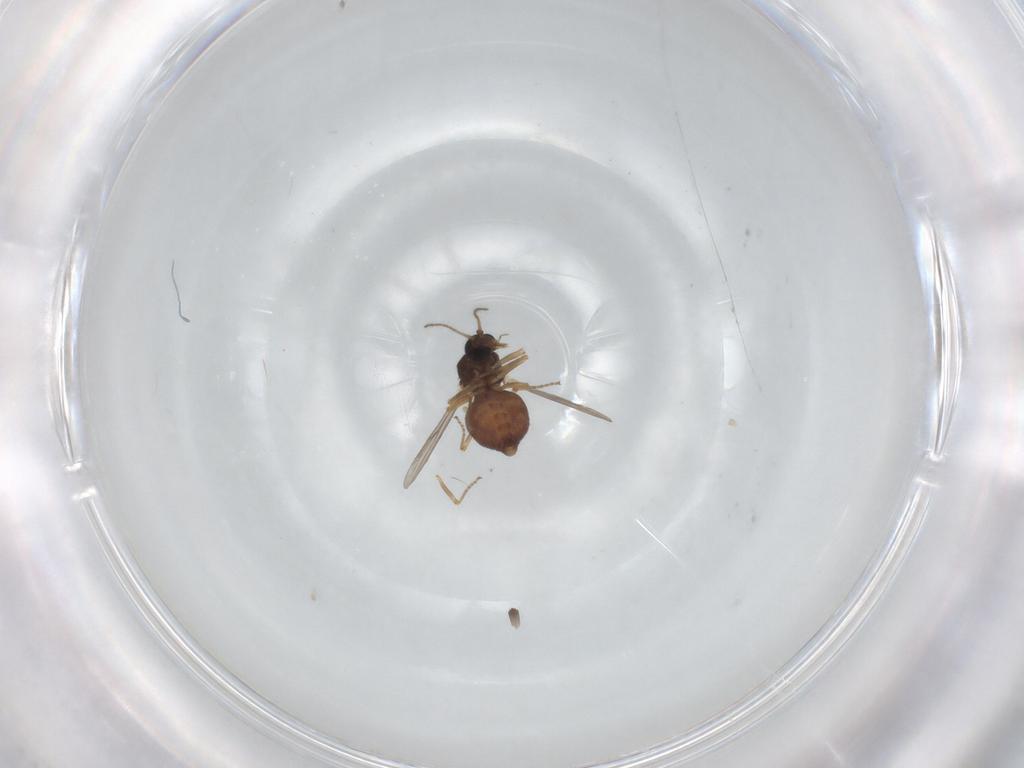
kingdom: Animalia
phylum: Arthropoda
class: Insecta
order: Diptera
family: Ceratopogonidae
